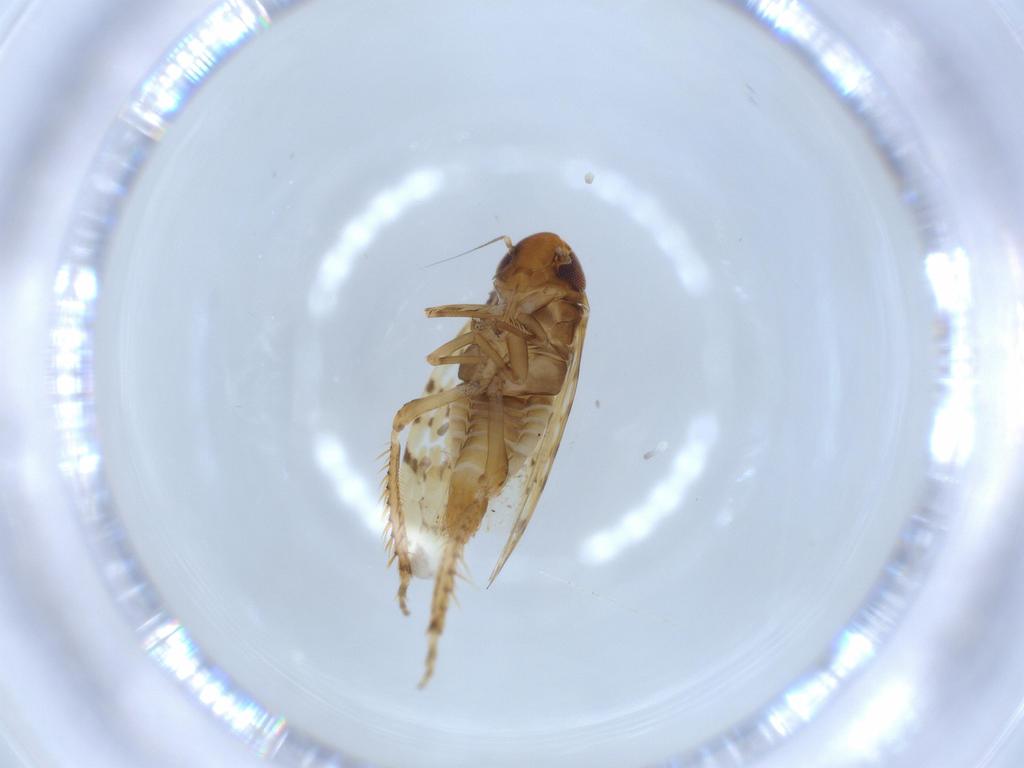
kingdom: Animalia
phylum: Arthropoda
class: Insecta
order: Hemiptera
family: Cicadellidae
